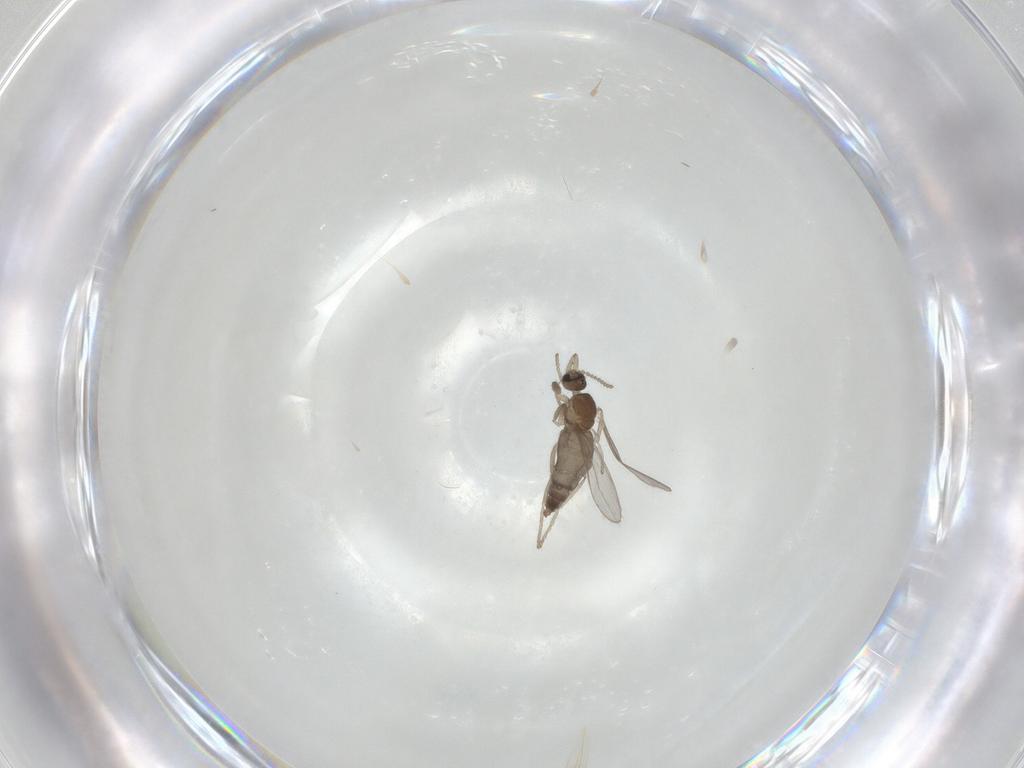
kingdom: Animalia
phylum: Arthropoda
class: Insecta
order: Diptera
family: Cecidomyiidae
